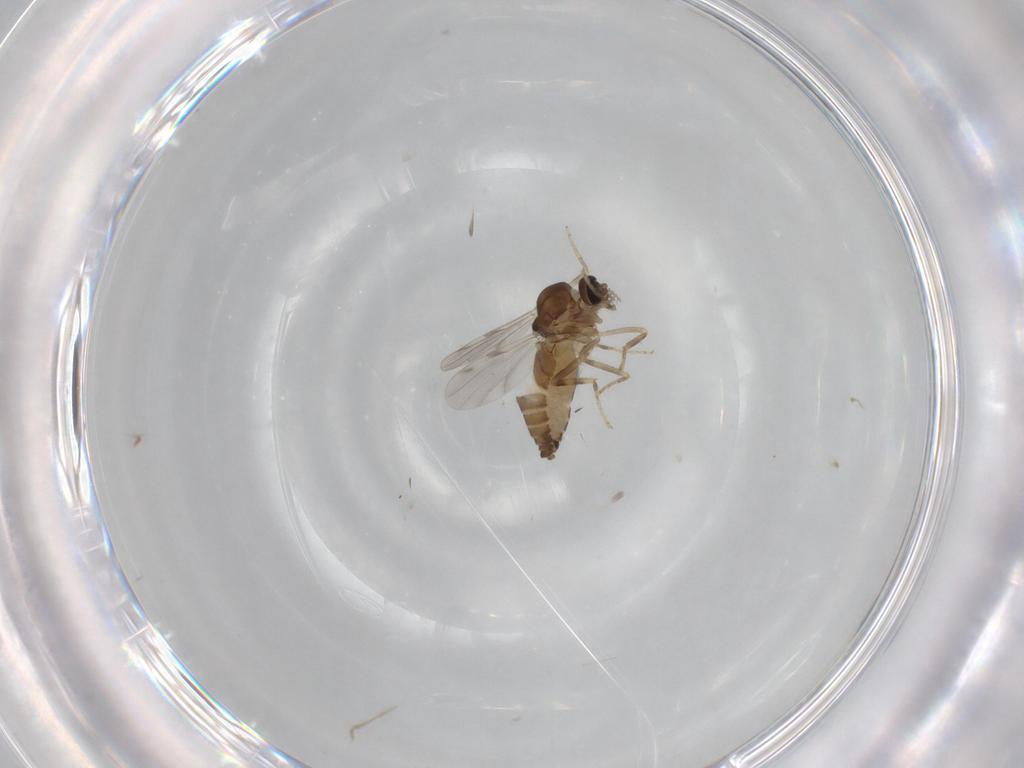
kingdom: Animalia
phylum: Arthropoda
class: Insecta
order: Diptera
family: Ceratopogonidae
